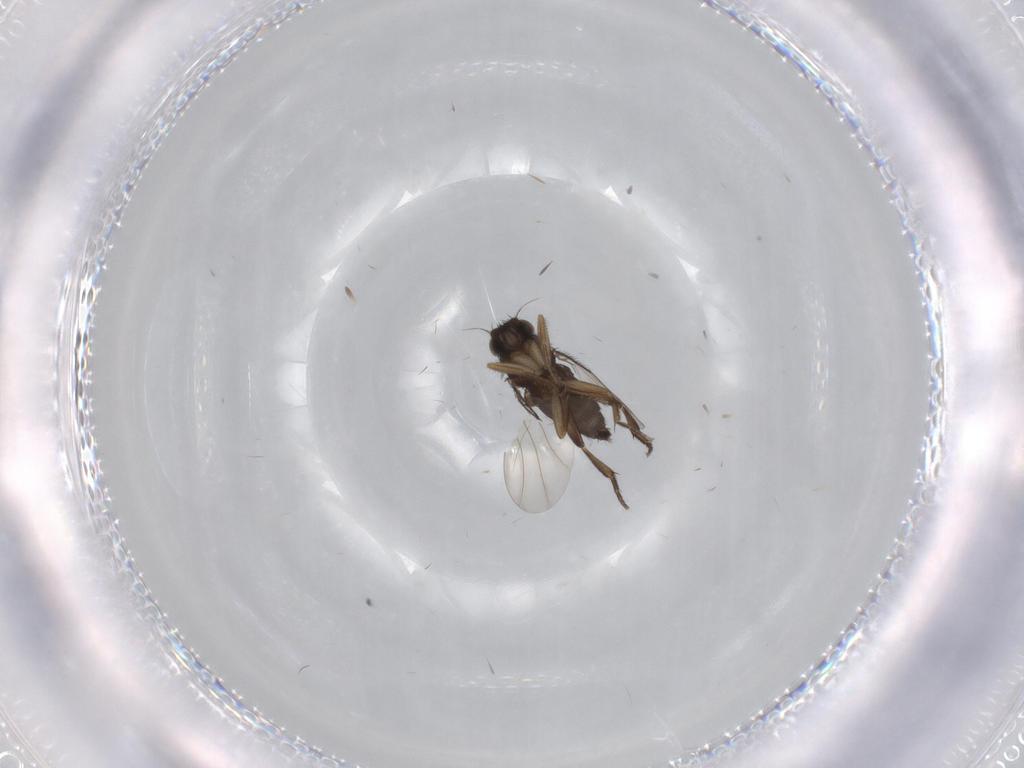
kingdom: Animalia
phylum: Arthropoda
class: Insecta
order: Diptera
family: Phoridae
